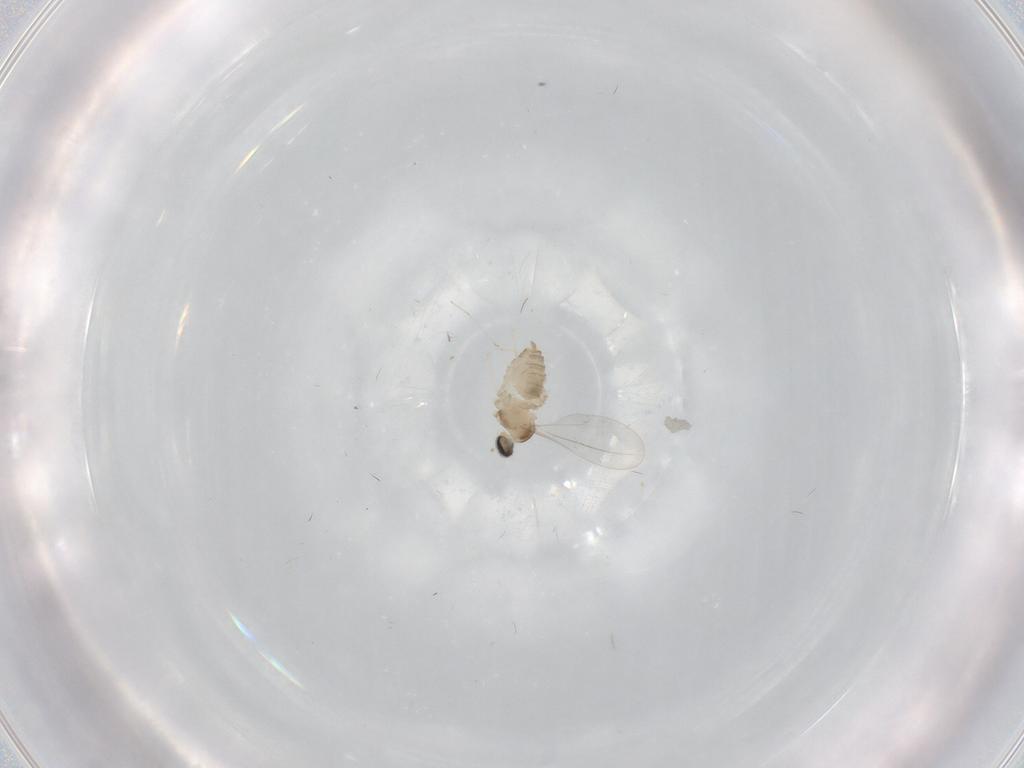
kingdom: Animalia
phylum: Arthropoda
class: Insecta
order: Diptera
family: Cecidomyiidae
